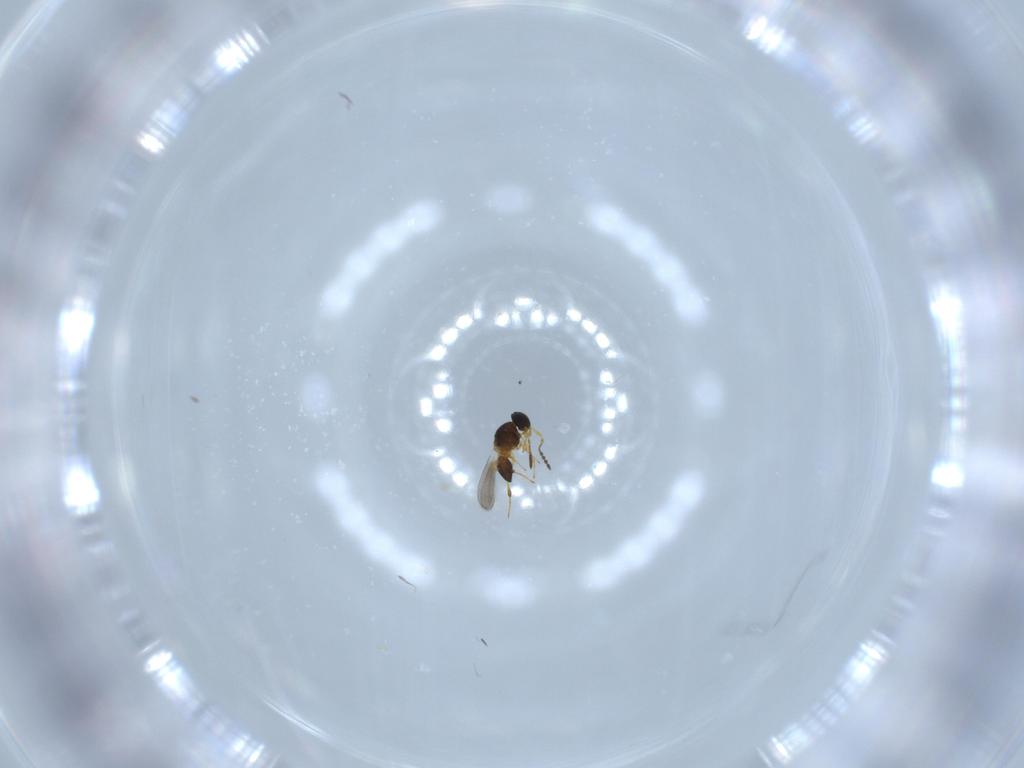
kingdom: Animalia
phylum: Arthropoda
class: Insecta
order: Hymenoptera
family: Platygastridae
